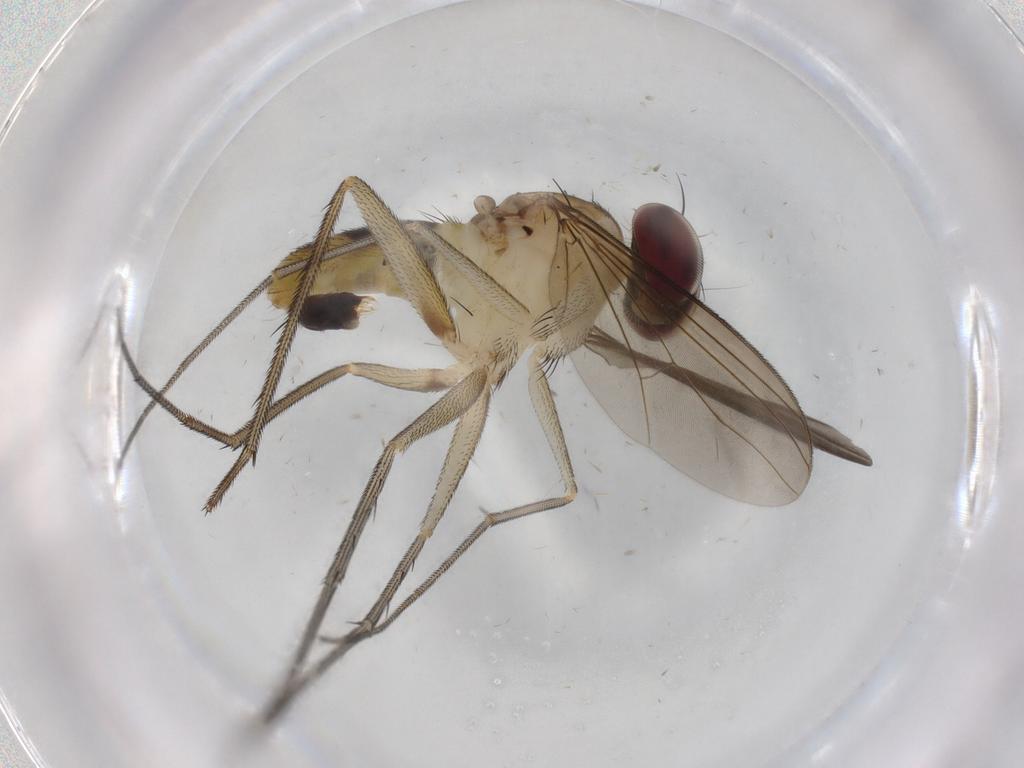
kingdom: Animalia
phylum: Arthropoda
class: Insecta
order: Diptera
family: Dolichopodidae
